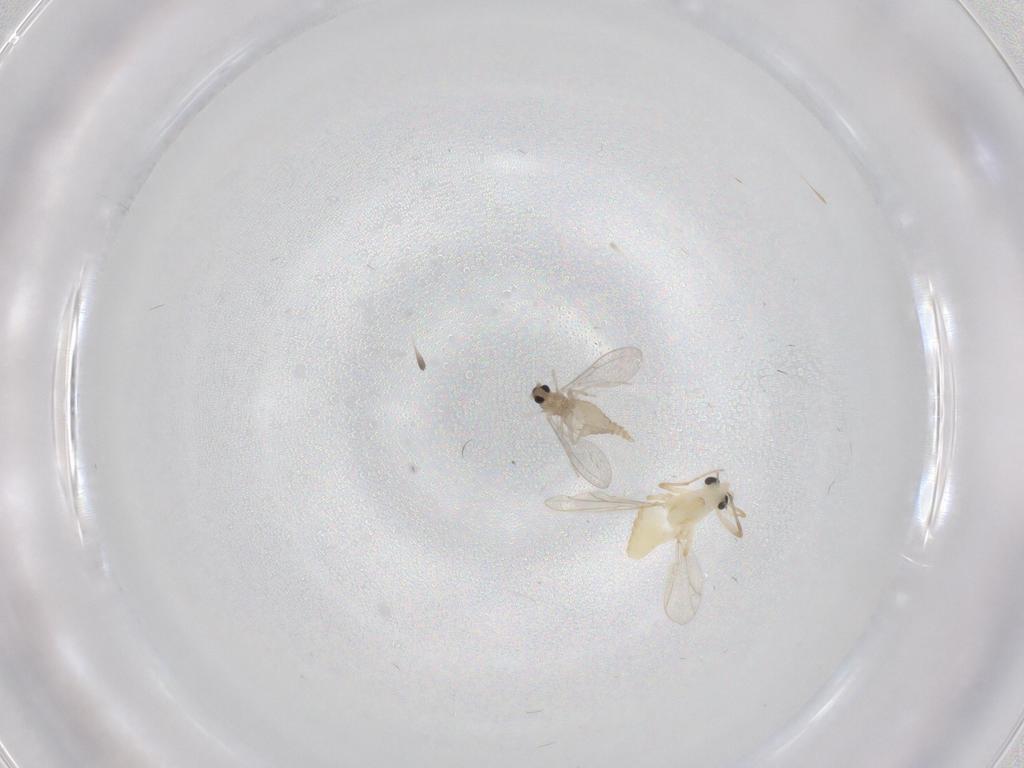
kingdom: Animalia
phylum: Arthropoda
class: Insecta
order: Diptera
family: Chironomidae
